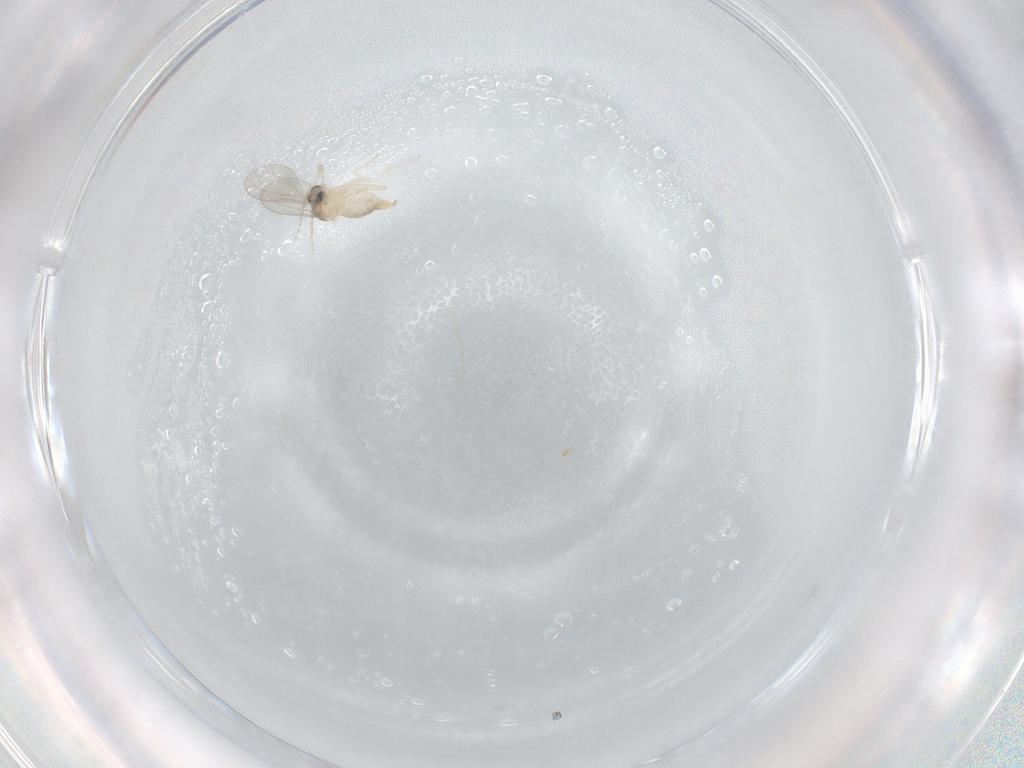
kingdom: Animalia
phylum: Arthropoda
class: Insecta
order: Diptera
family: Cecidomyiidae
